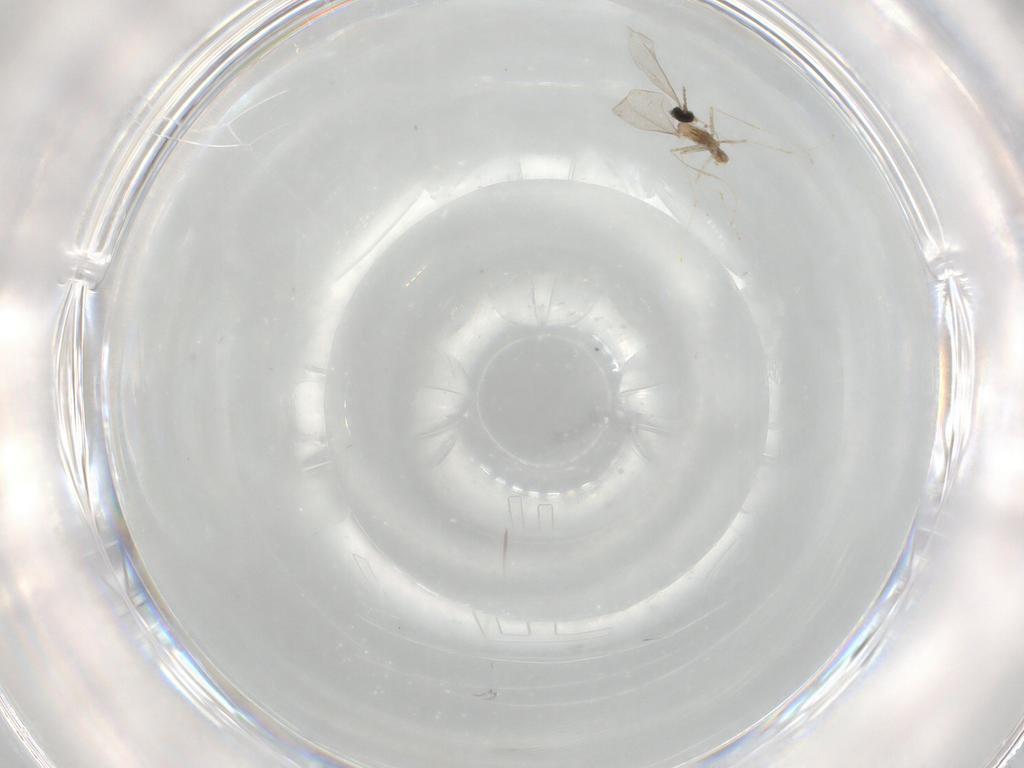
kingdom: Animalia
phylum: Arthropoda
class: Insecta
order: Diptera
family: Cecidomyiidae
